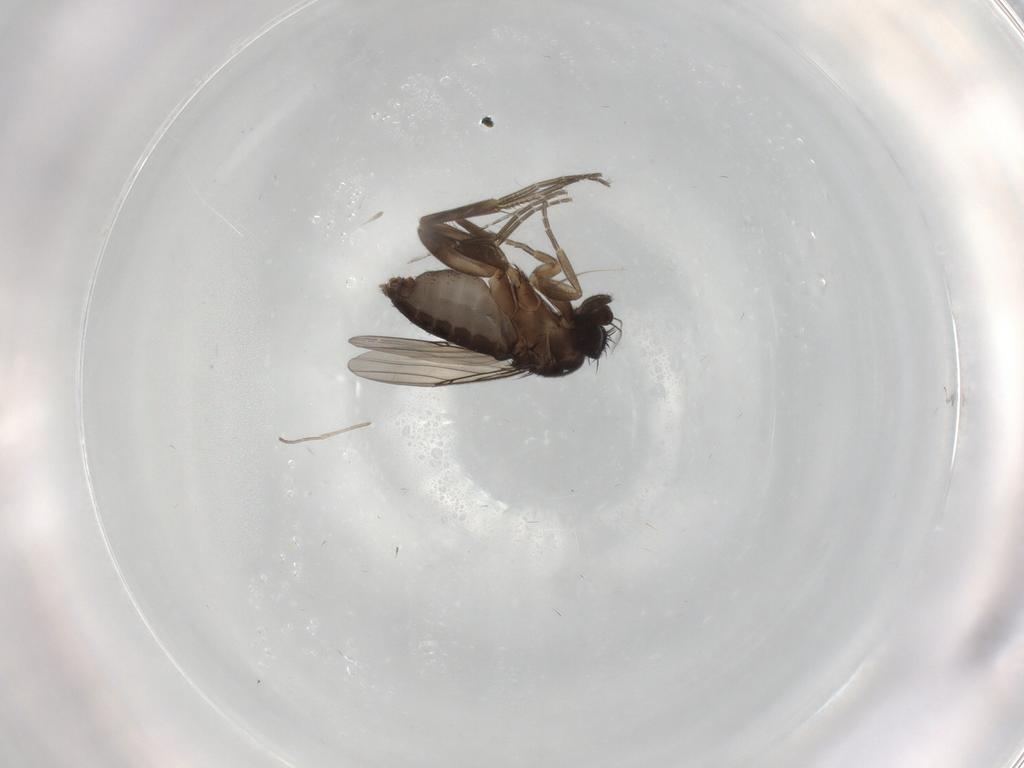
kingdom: Animalia
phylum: Arthropoda
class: Insecta
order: Diptera
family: Phoridae
